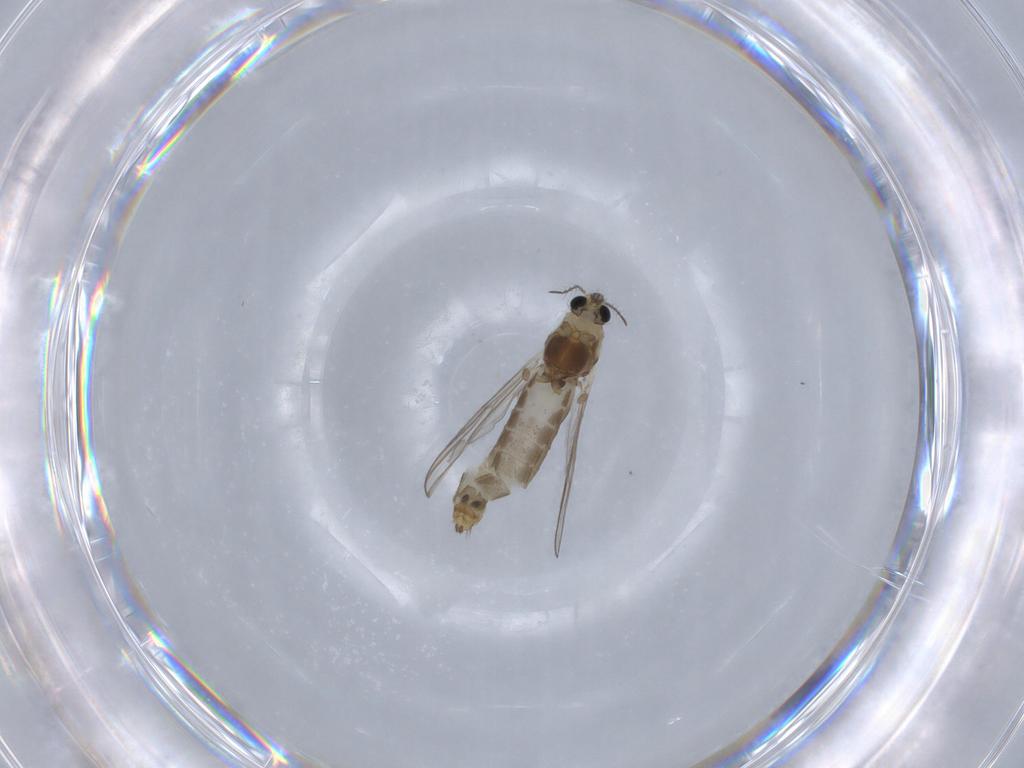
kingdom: Animalia
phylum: Arthropoda
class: Insecta
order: Diptera
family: Chironomidae
